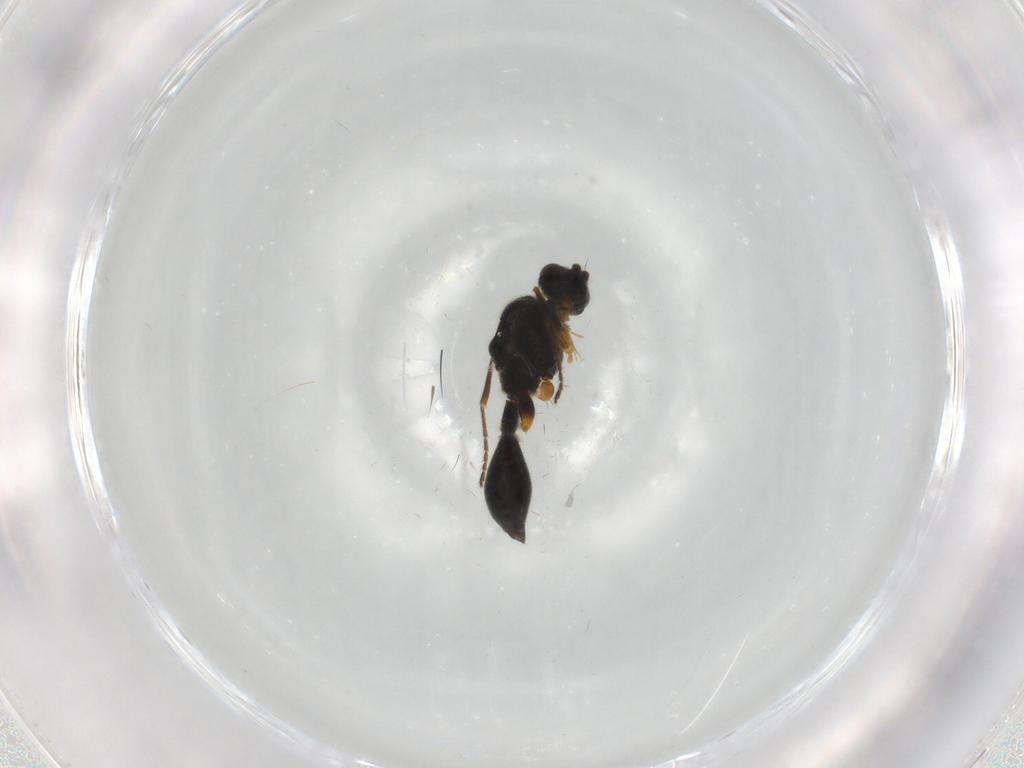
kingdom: Animalia
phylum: Arthropoda
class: Insecta
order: Hymenoptera
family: Diapriidae
